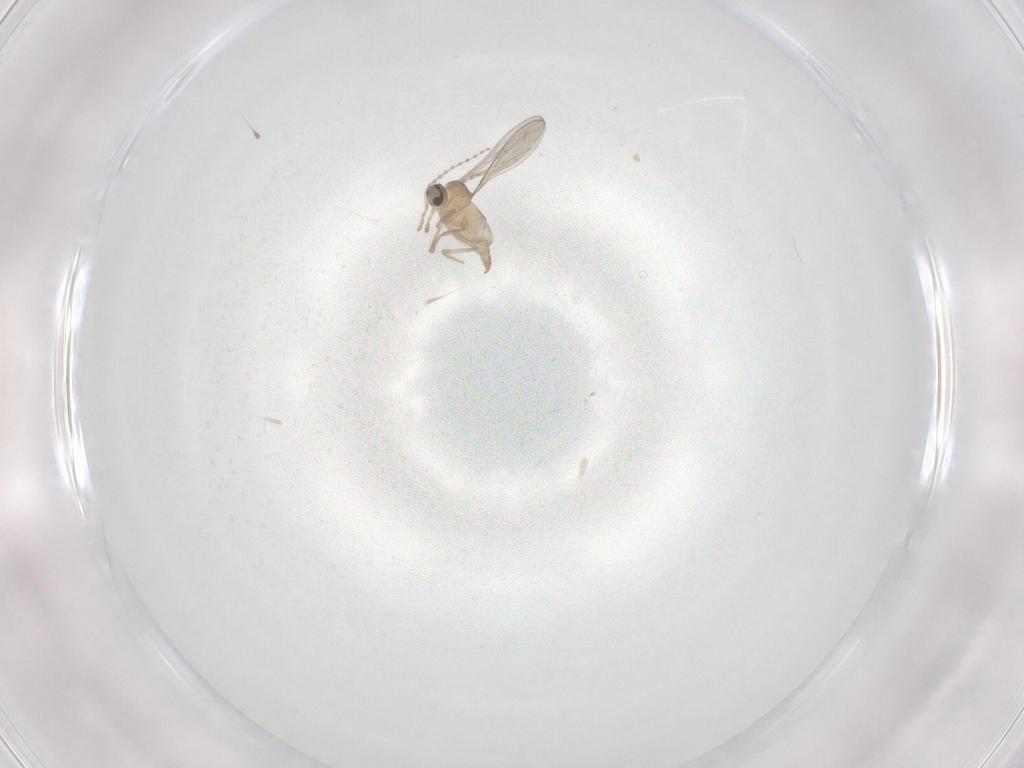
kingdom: Animalia
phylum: Arthropoda
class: Insecta
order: Diptera
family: Cecidomyiidae
